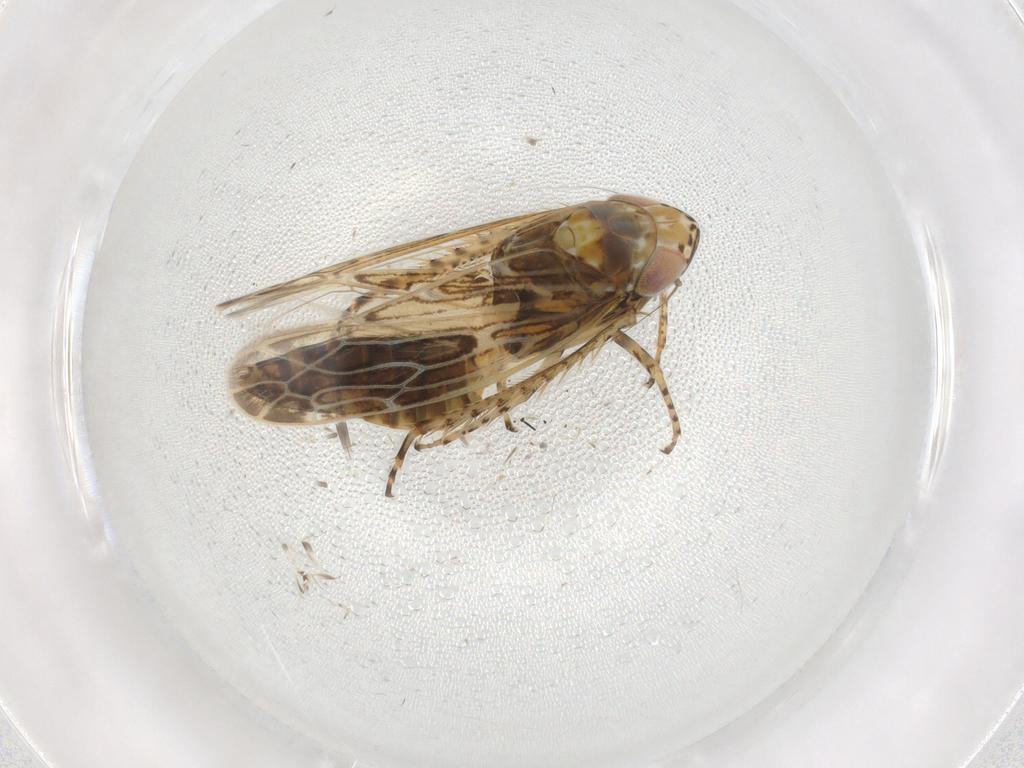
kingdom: Animalia
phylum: Arthropoda
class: Insecta
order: Hemiptera
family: Cicadellidae
